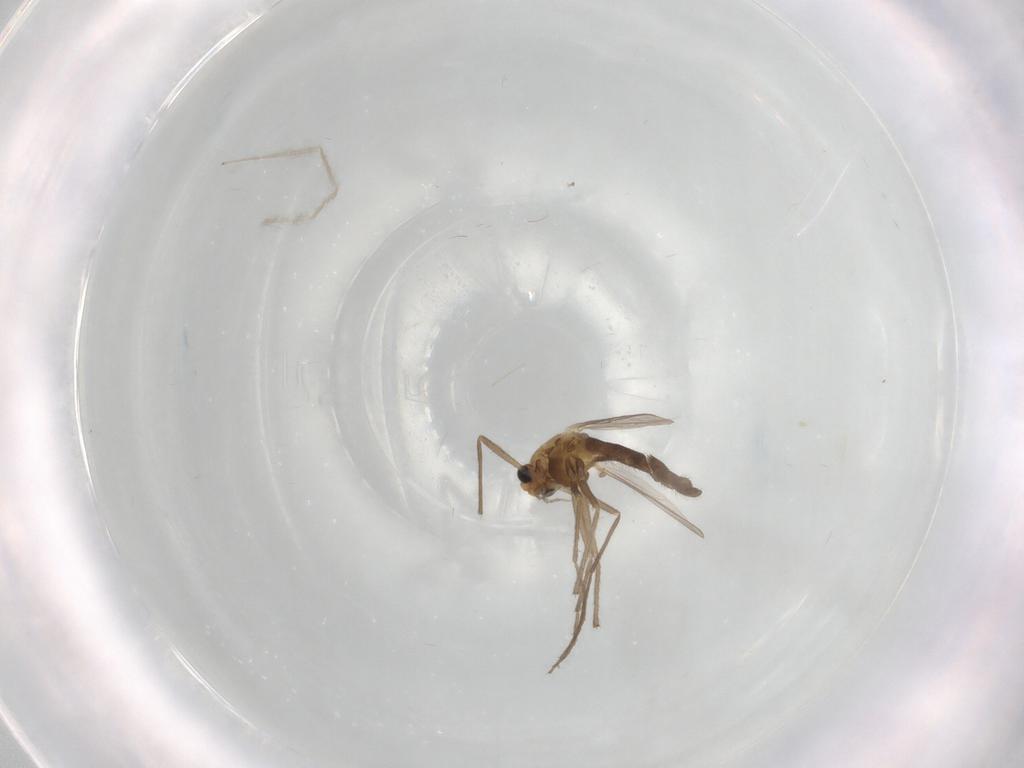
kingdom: Animalia
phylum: Arthropoda
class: Insecta
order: Diptera
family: Chironomidae
